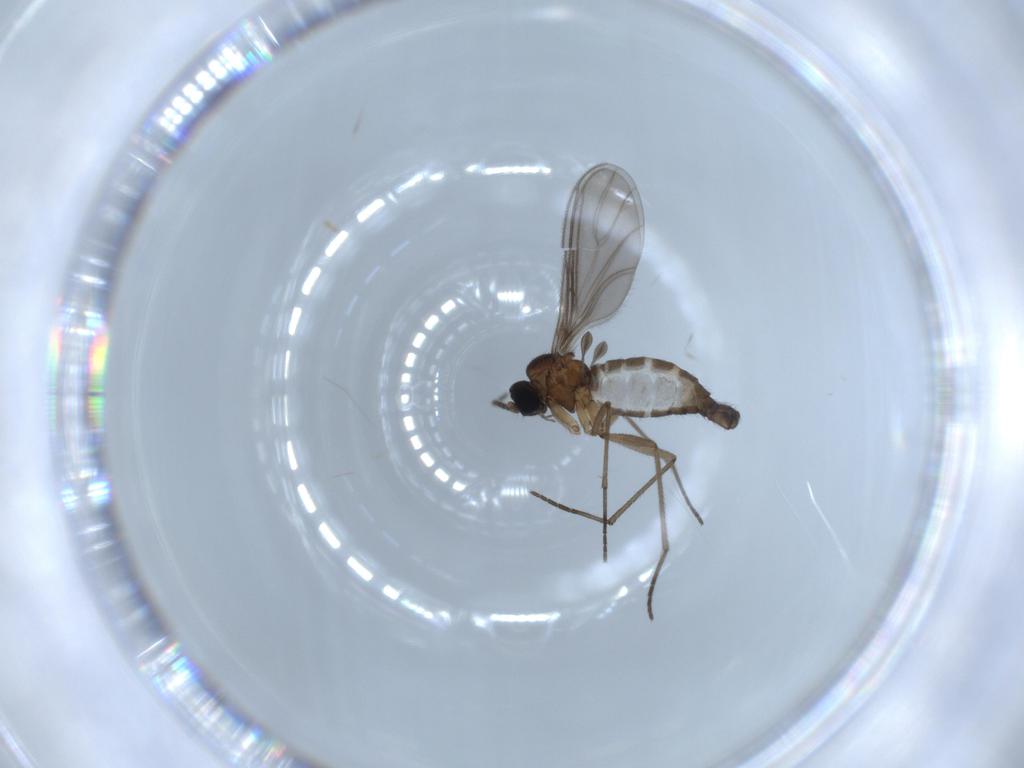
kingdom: Animalia
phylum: Arthropoda
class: Insecta
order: Diptera
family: Sciaridae
